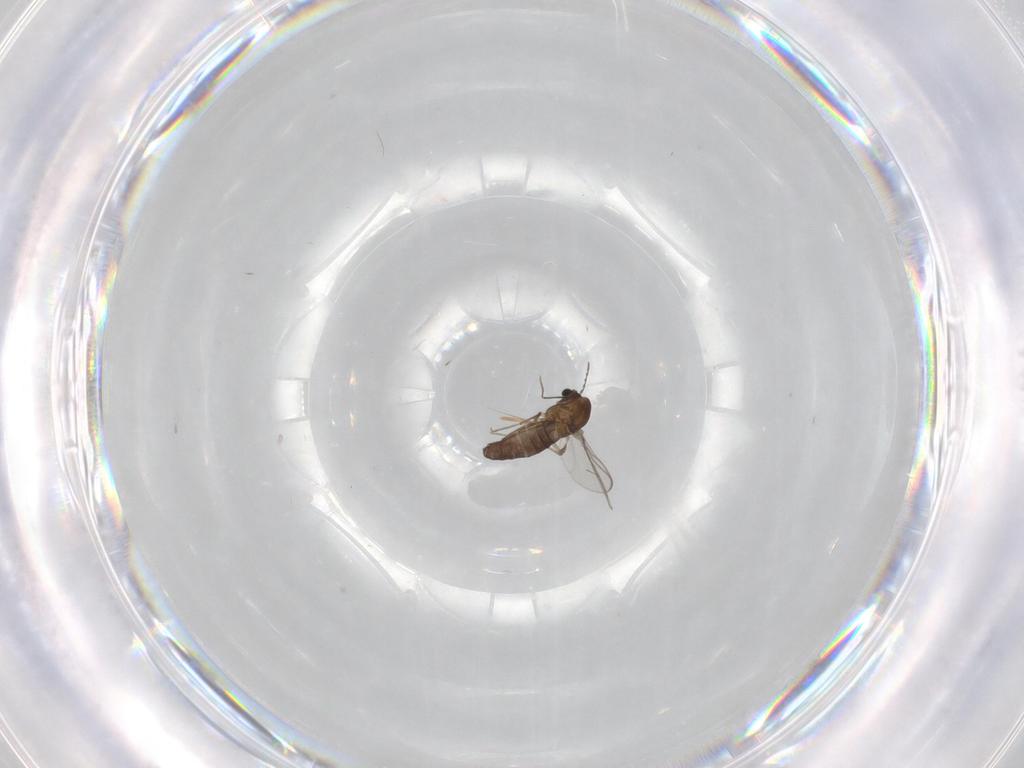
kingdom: Animalia
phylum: Arthropoda
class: Insecta
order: Diptera
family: Chironomidae
